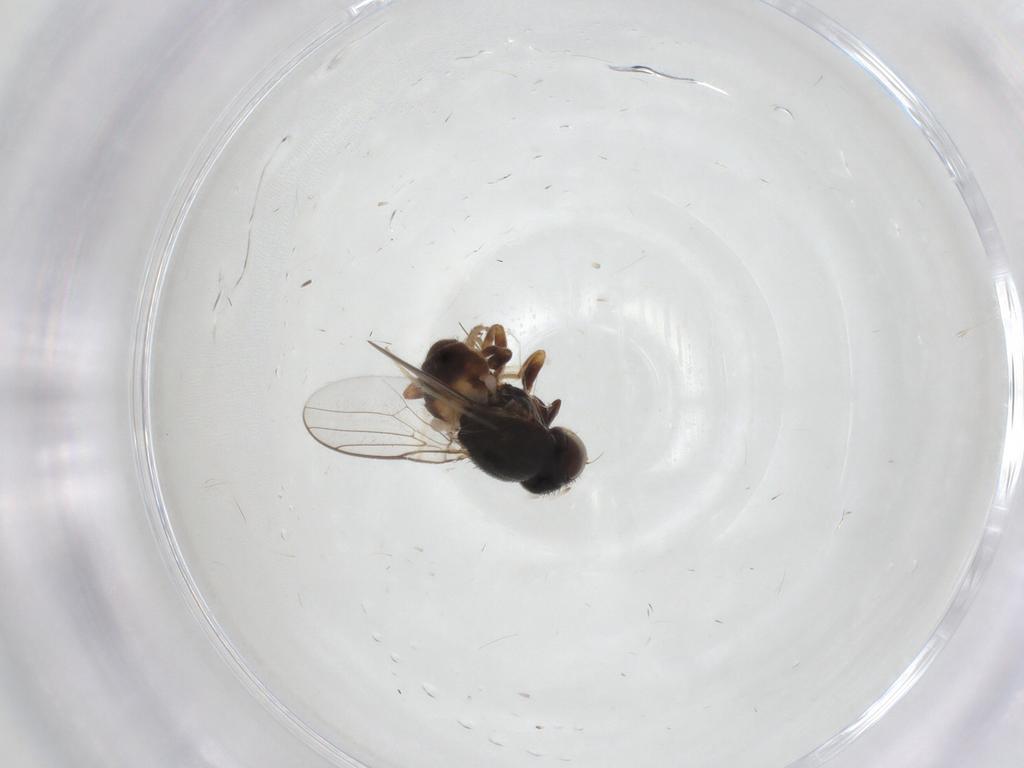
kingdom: Animalia
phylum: Arthropoda
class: Insecta
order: Diptera
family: Chloropidae
